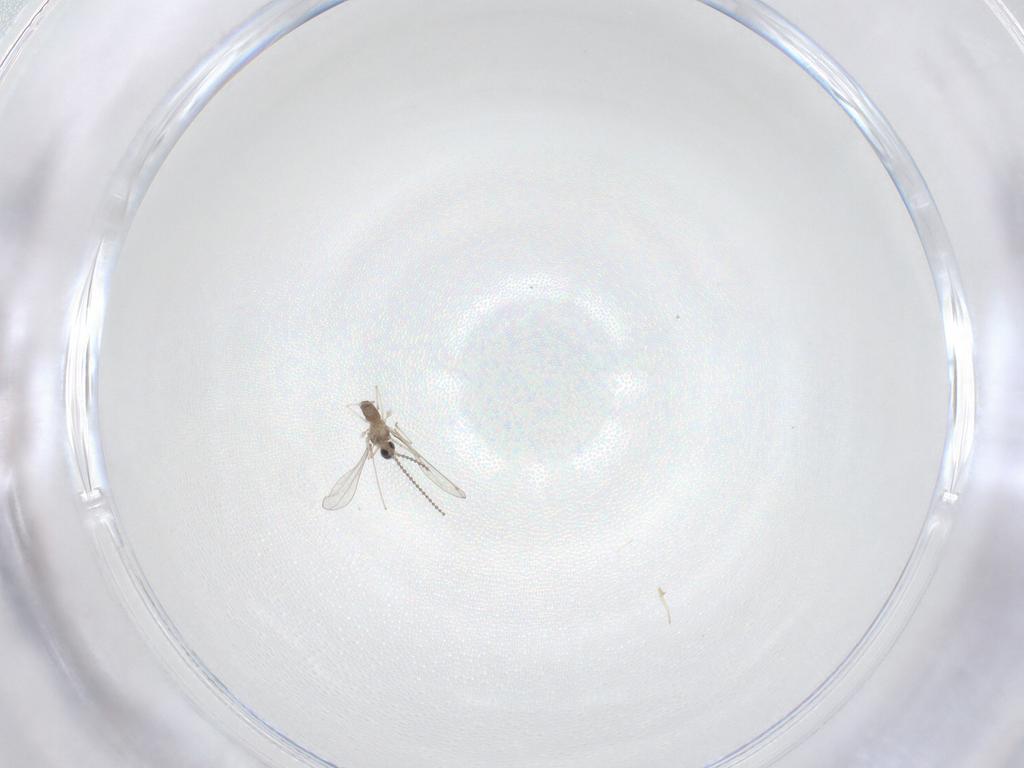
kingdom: Animalia
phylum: Arthropoda
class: Insecta
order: Diptera
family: Cecidomyiidae
